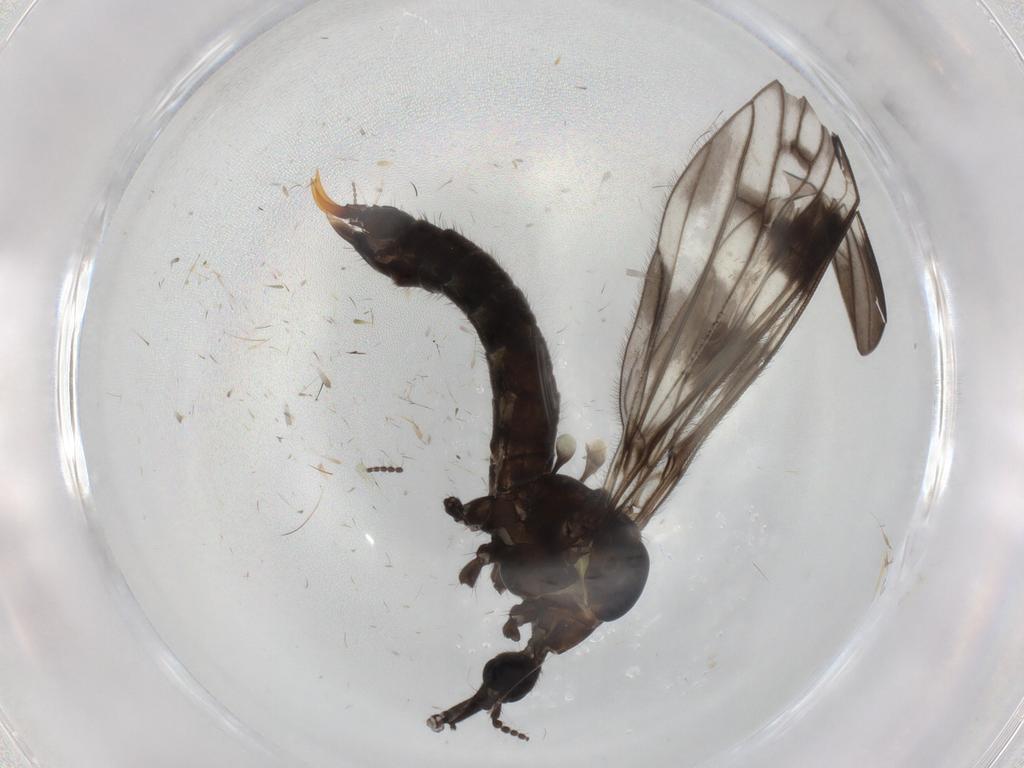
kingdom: Animalia
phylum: Arthropoda
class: Insecta
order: Diptera
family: Limoniidae
